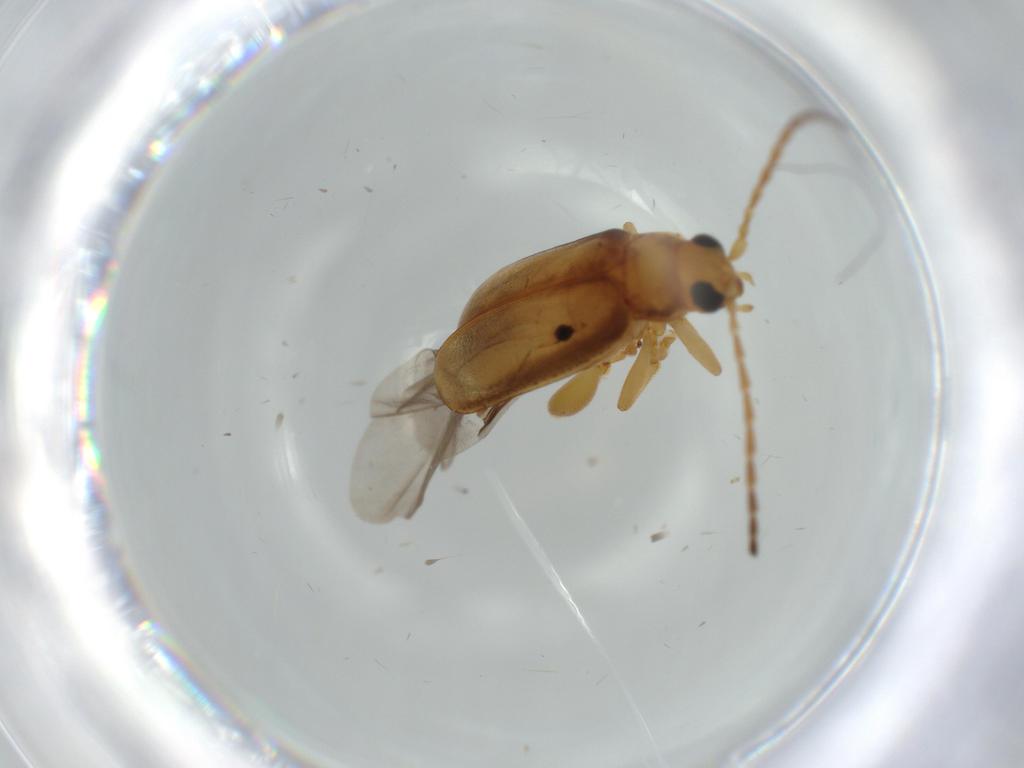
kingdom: Animalia
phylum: Arthropoda
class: Insecta
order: Coleoptera
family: Chrysomelidae
